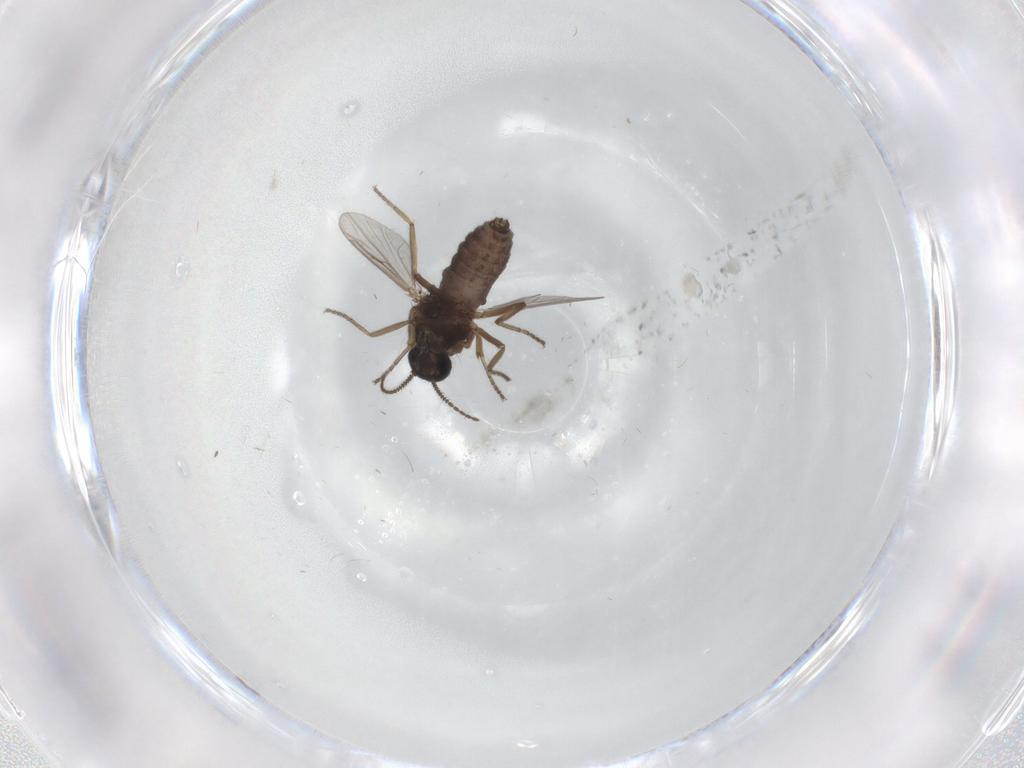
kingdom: Animalia
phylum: Arthropoda
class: Insecta
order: Diptera
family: Ceratopogonidae
